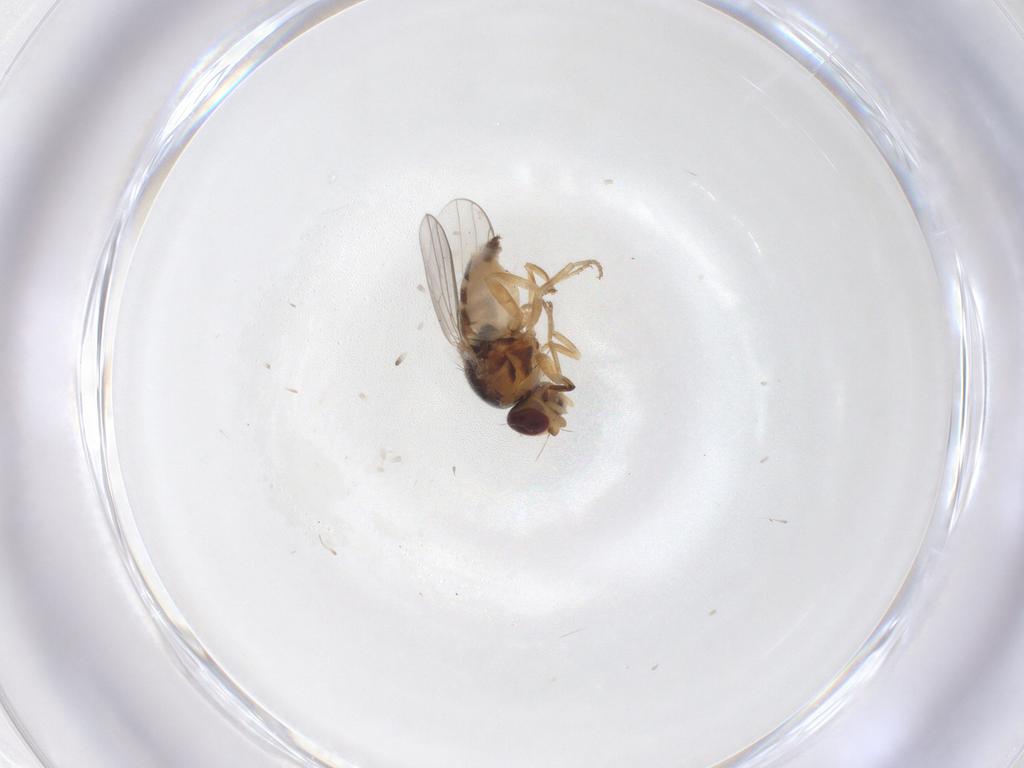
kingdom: Animalia
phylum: Arthropoda
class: Insecta
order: Diptera
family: Chloropidae
